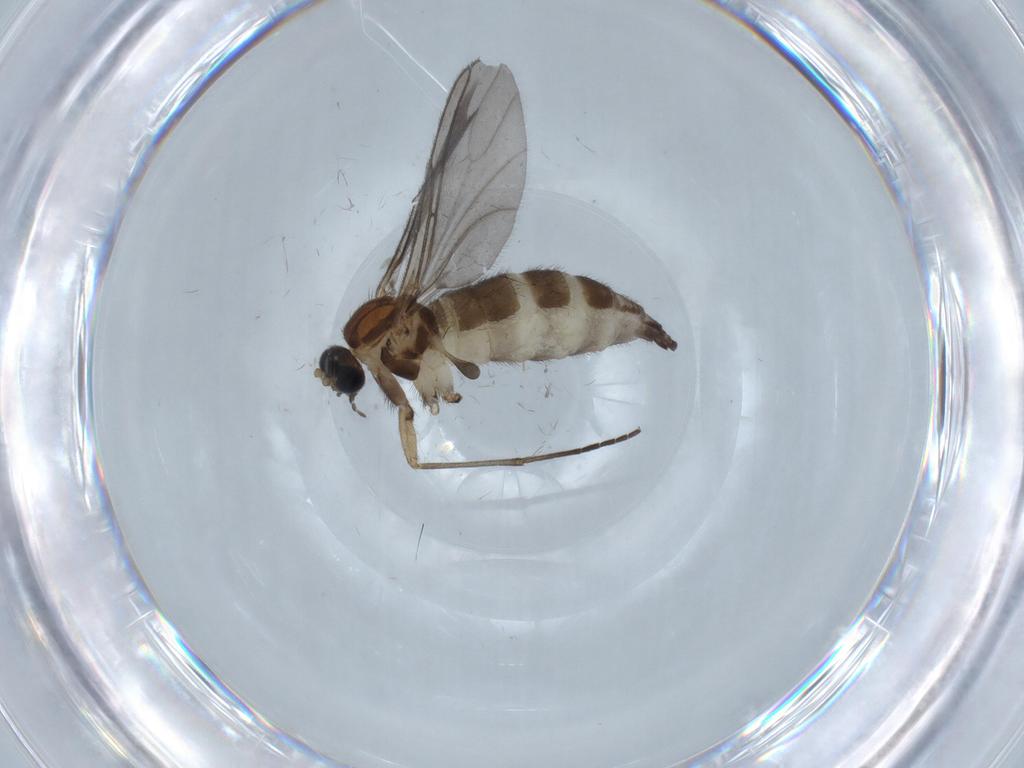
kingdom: Animalia
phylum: Arthropoda
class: Insecta
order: Diptera
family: Sciaridae
